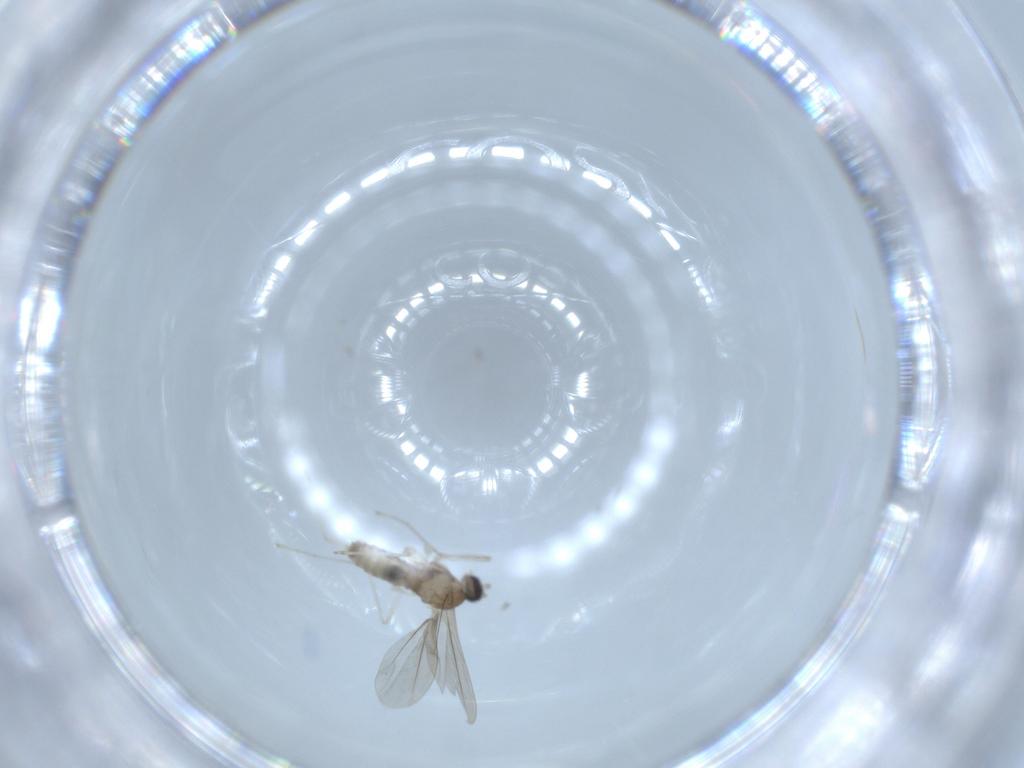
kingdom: Animalia
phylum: Arthropoda
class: Insecta
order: Diptera
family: Cecidomyiidae
